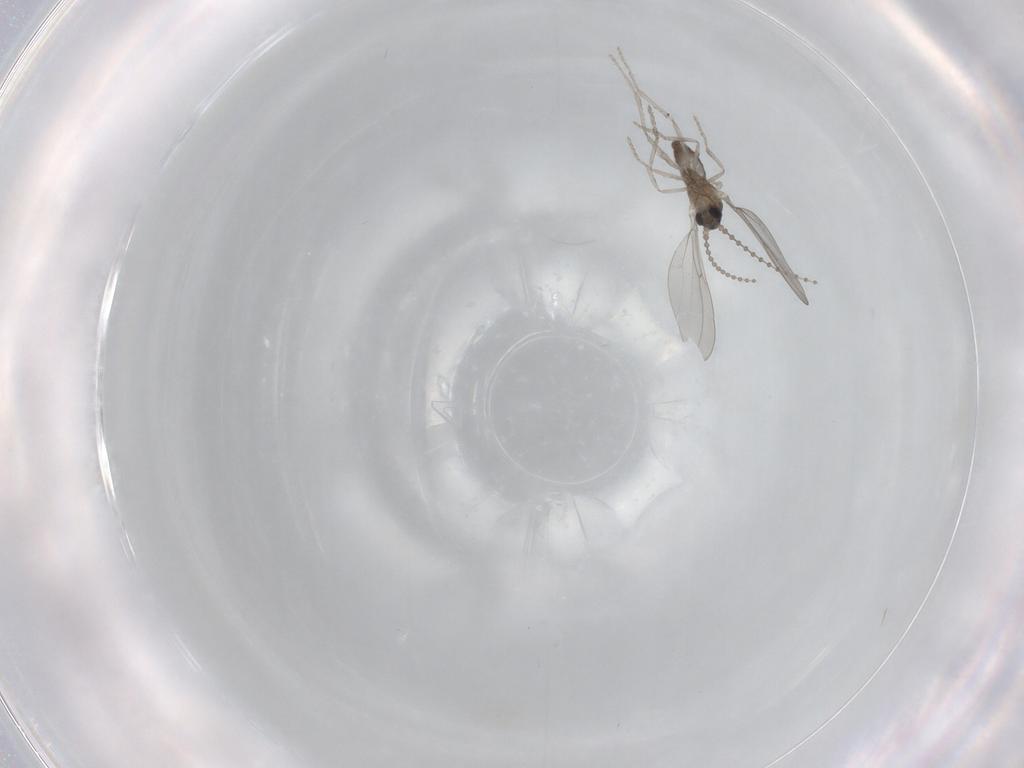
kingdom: Animalia
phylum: Arthropoda
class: Insecta
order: Diptera
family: Cecidomyiidae
